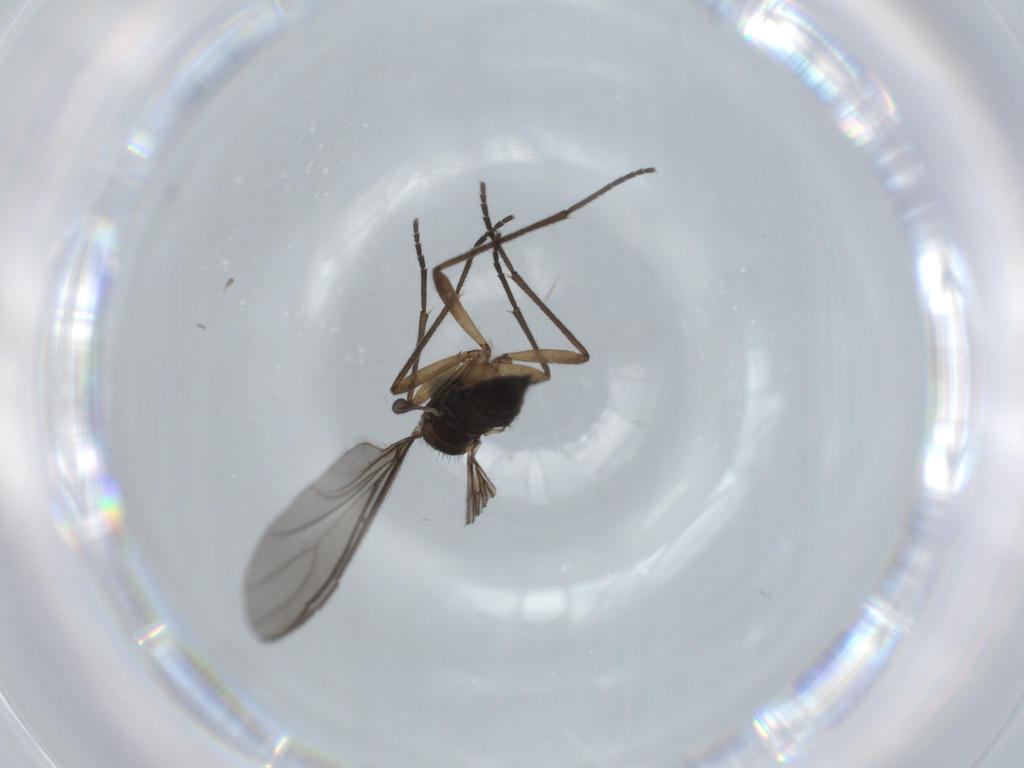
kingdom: Animalia
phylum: Arthropoda
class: Insecta
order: Diptera
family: Sciaridae
